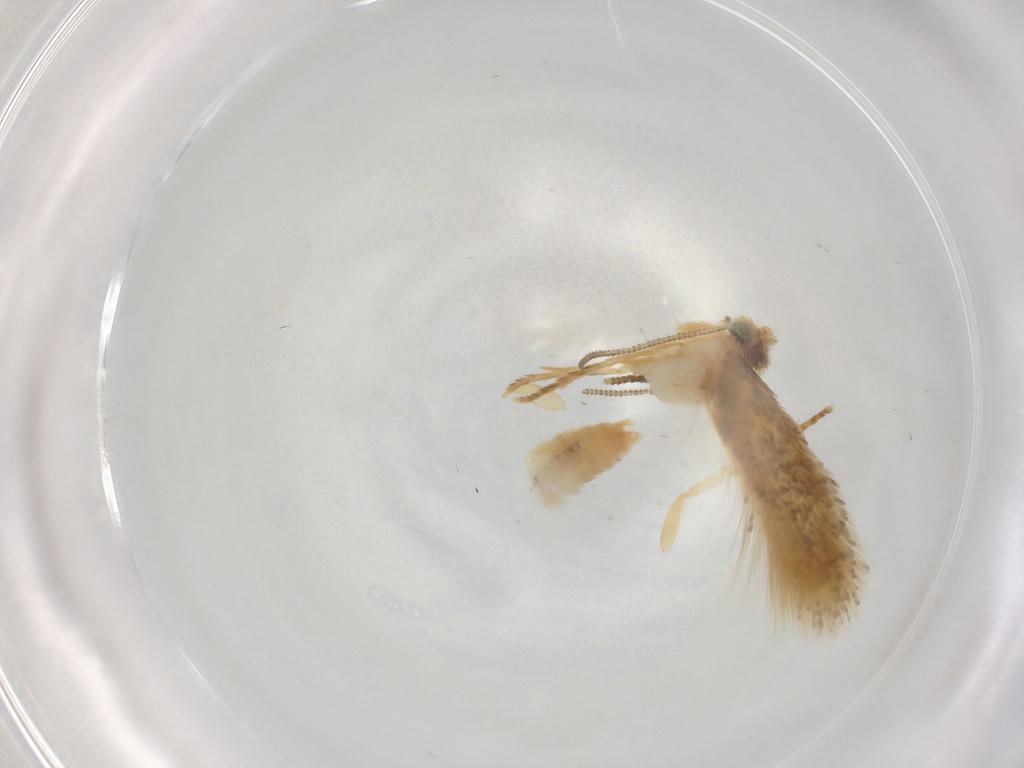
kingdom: Animalia
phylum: Arthropoda
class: Insecta
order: Lepidoptera
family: Nepticulidae
